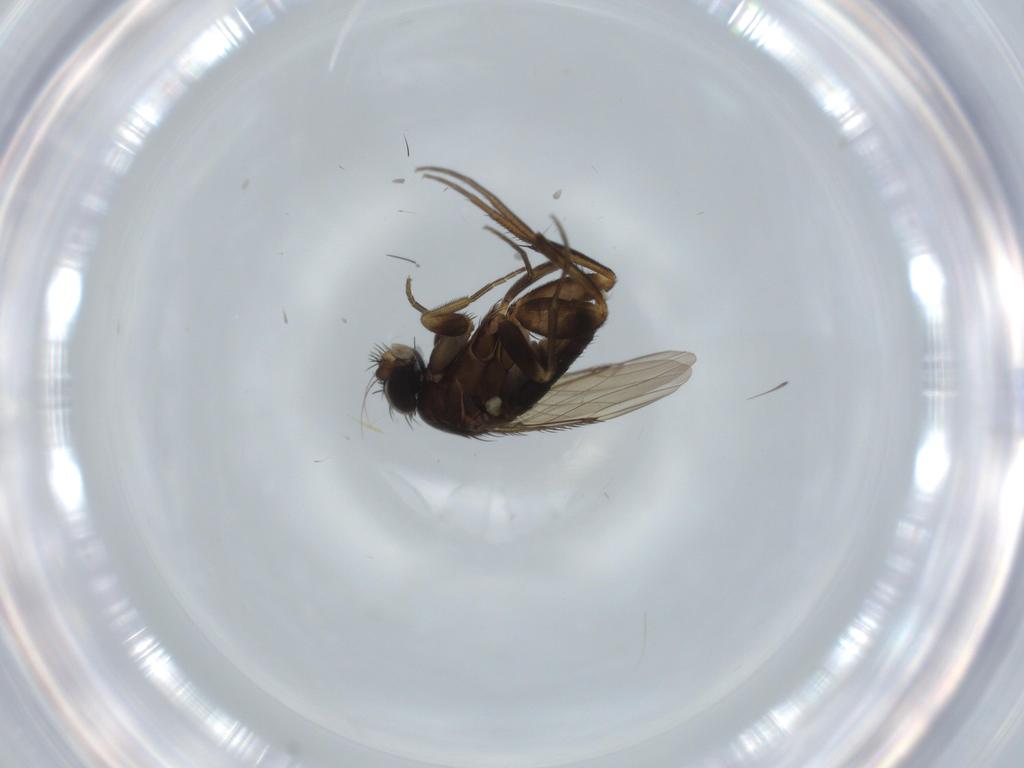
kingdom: Animalia
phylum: Arthropoda
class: Insecta
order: Diptera
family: Phoridae
